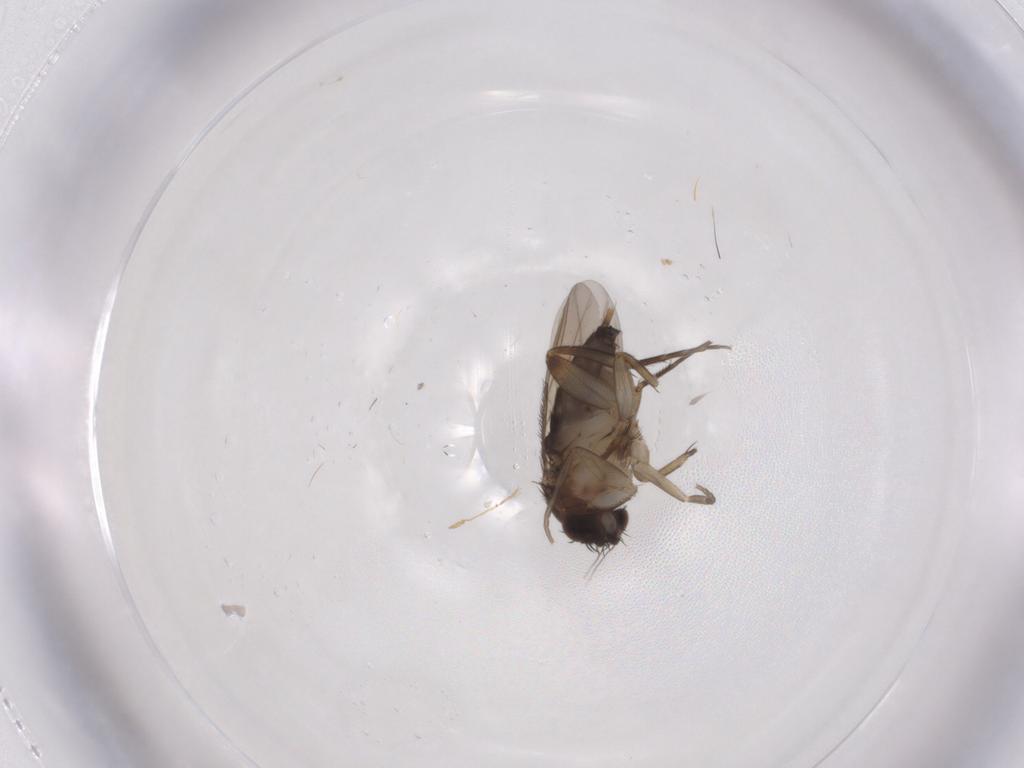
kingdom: Animalia
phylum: Arthropoda
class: Insecta
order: Diptera
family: Phoridae
